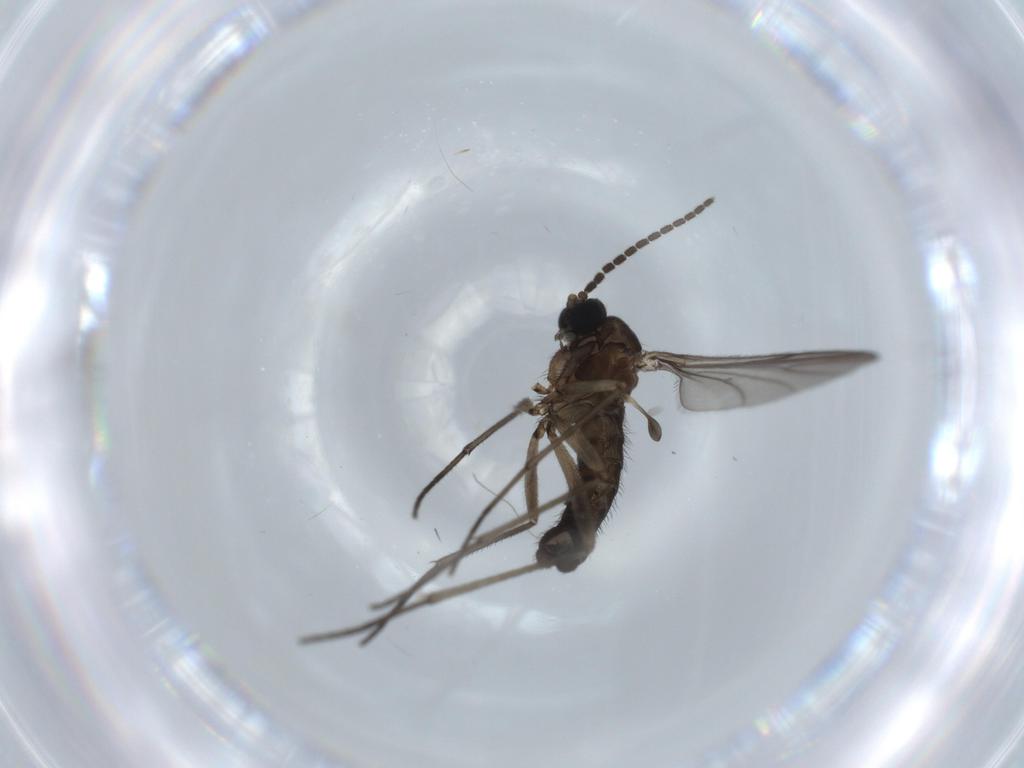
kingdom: Animalia
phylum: Arthropoda
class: Insecta
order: Diptera
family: Sciaridae
